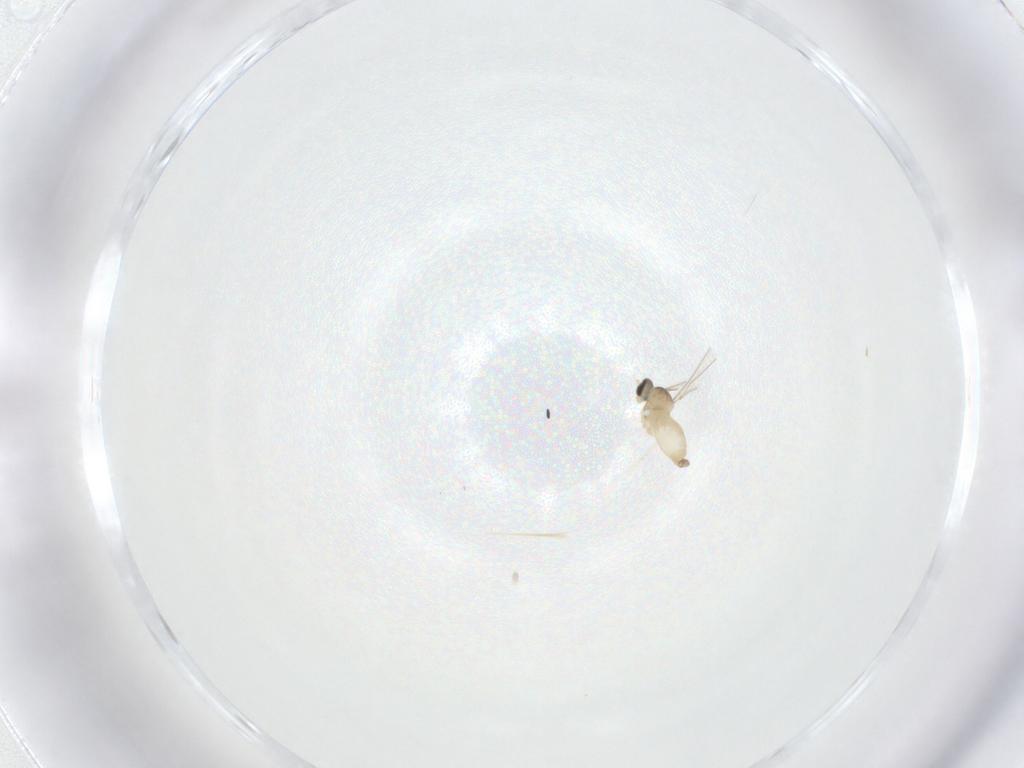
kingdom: Animalia
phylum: Arthropoda
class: Insecta
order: Diptera
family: Cecidomyiidae
